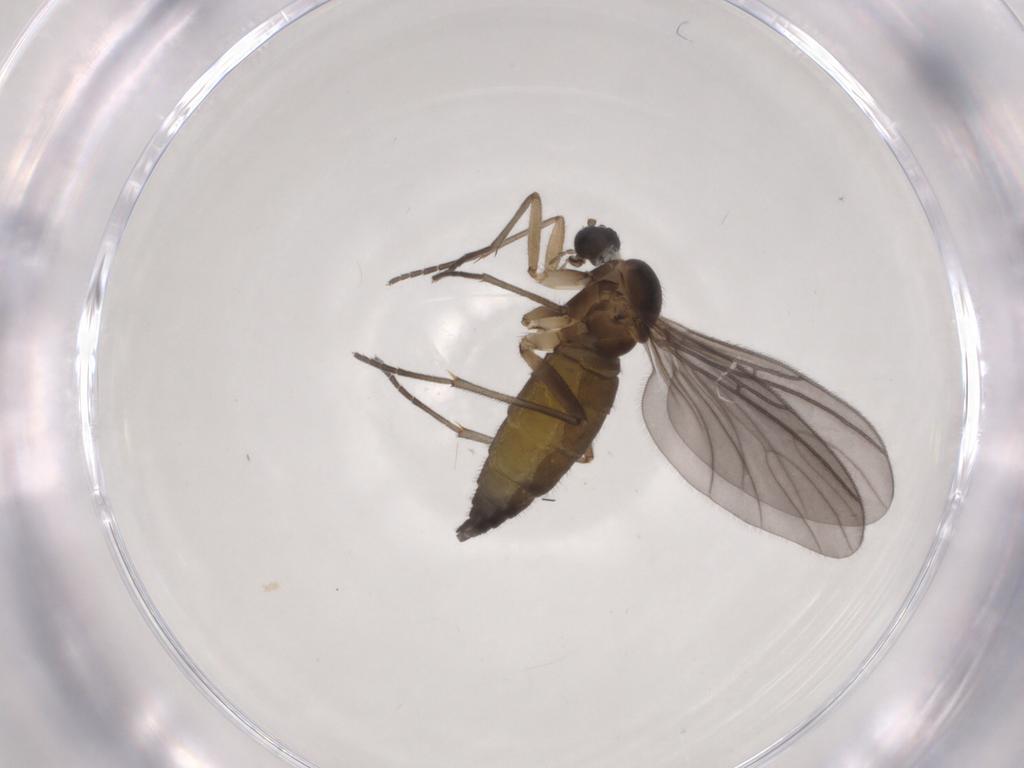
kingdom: Animalia
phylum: Arthropoda
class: Insecta
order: Diptera
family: Sciaridae
